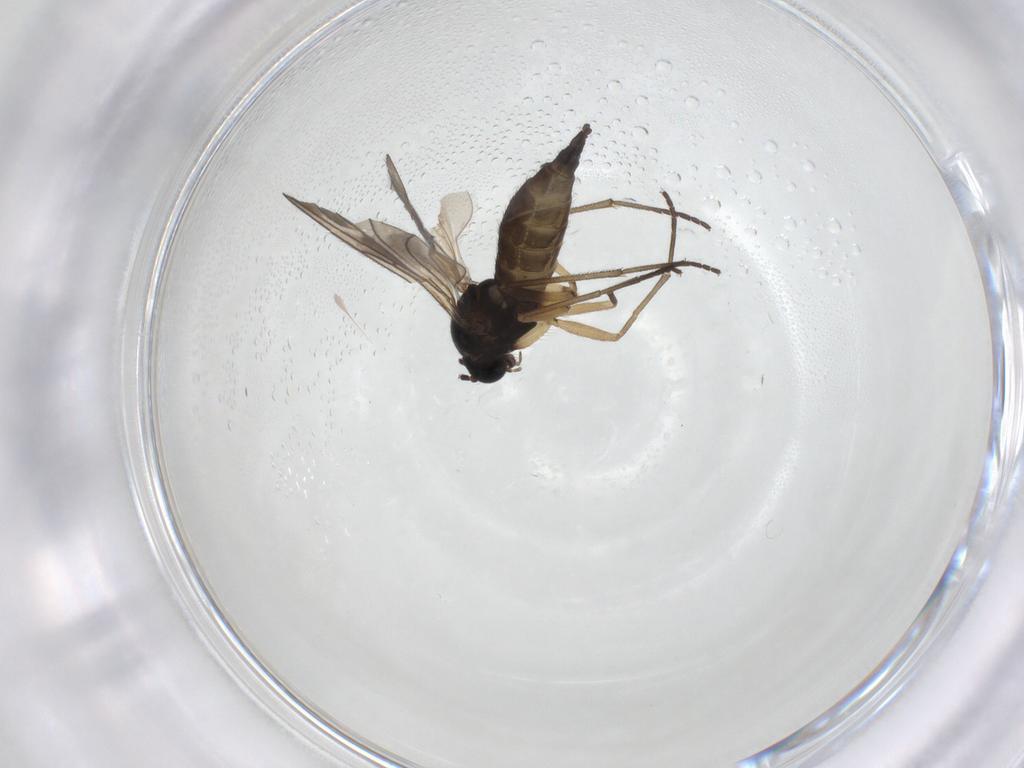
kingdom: Animalia
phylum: Arthropoda
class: Insecta
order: Diptera
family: Sciaridae
